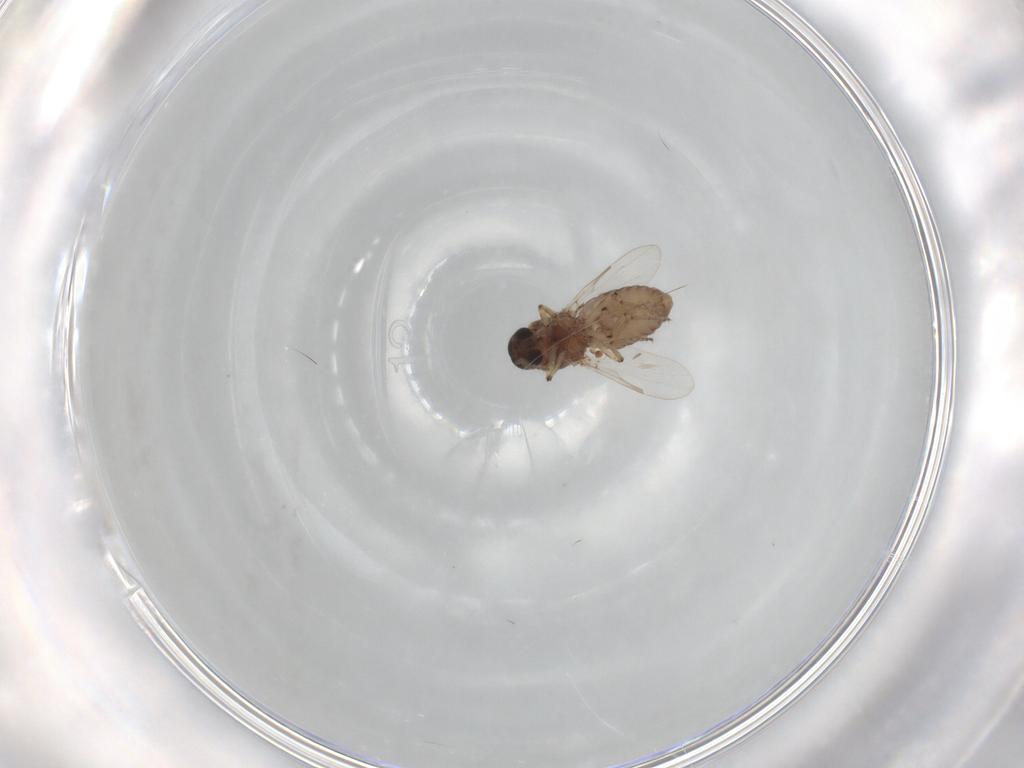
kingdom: Animalia
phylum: Arthropoda
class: Insecta
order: Diptera
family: Ceratopogonidae
